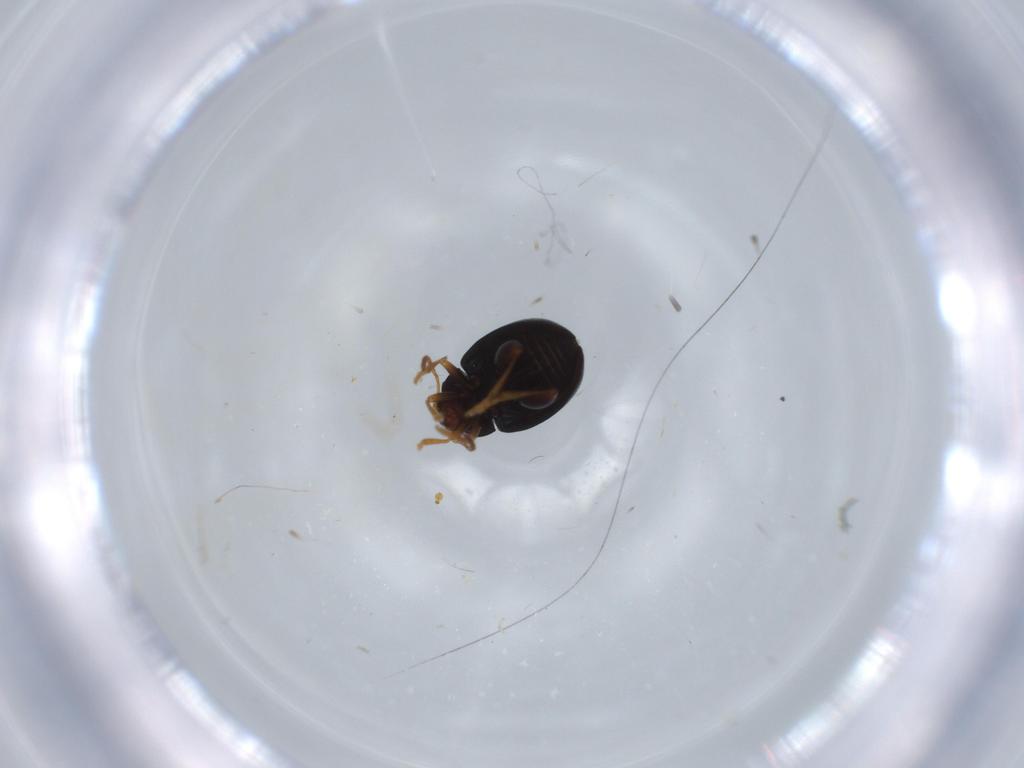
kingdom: Animalia
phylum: Arthropoda
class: Insecta
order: Coleoptera
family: Chrysomelidae
